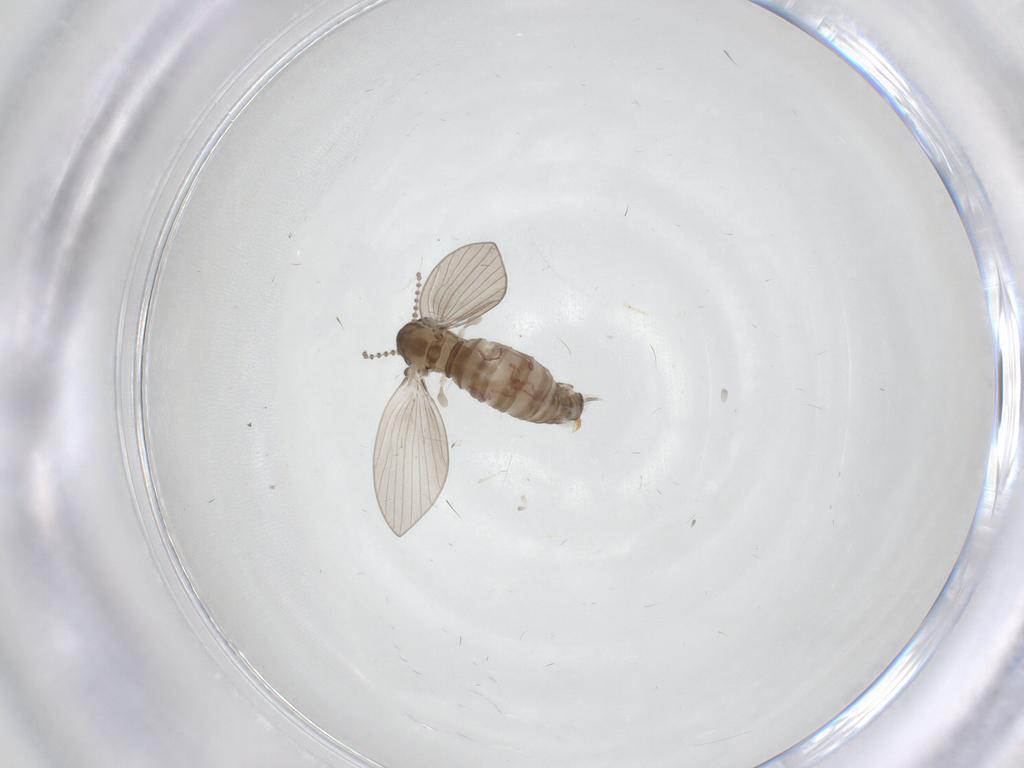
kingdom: Animalia
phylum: Arthropoda
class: Insecta
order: Diptera
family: Psychodidae
